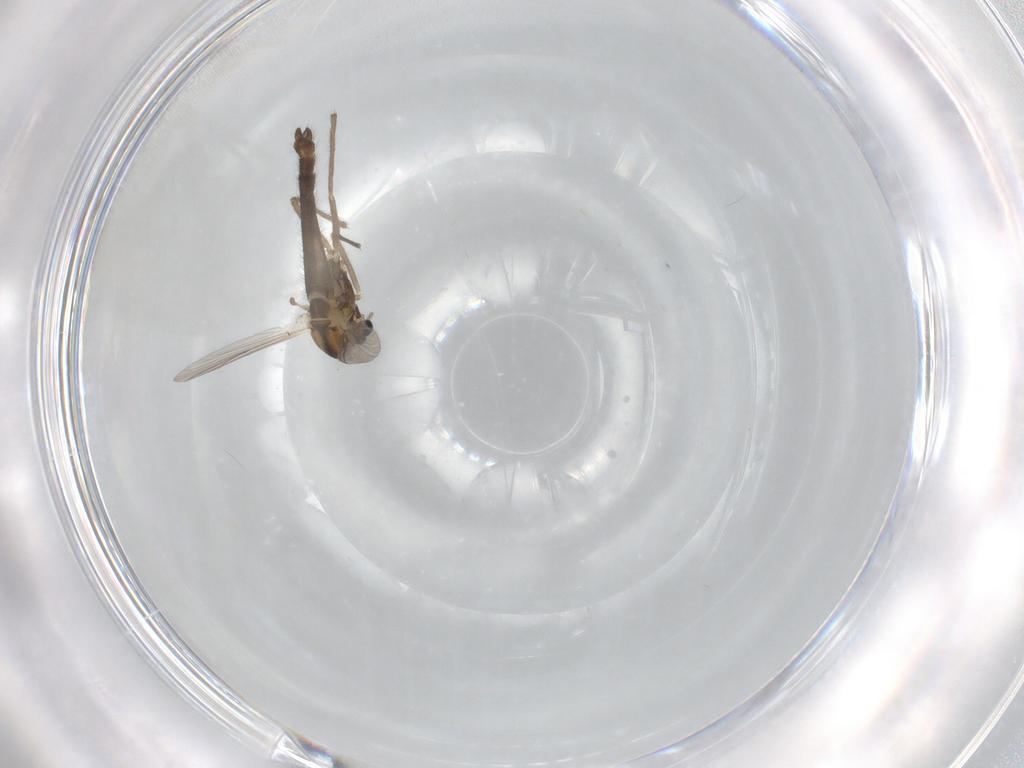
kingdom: Animalia
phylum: Arthropoda
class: Insecta
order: Diptera
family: Chironomidae
